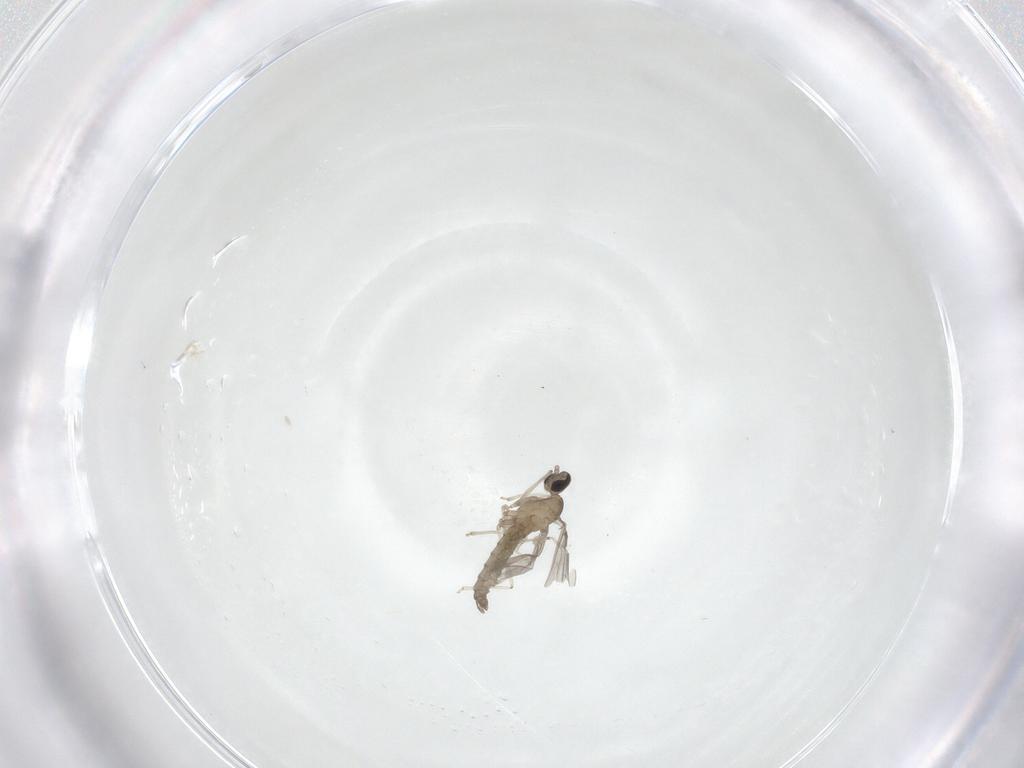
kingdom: Animalia
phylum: Arthropoda
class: Insecta
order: Diptera
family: Cecidomyiidae
